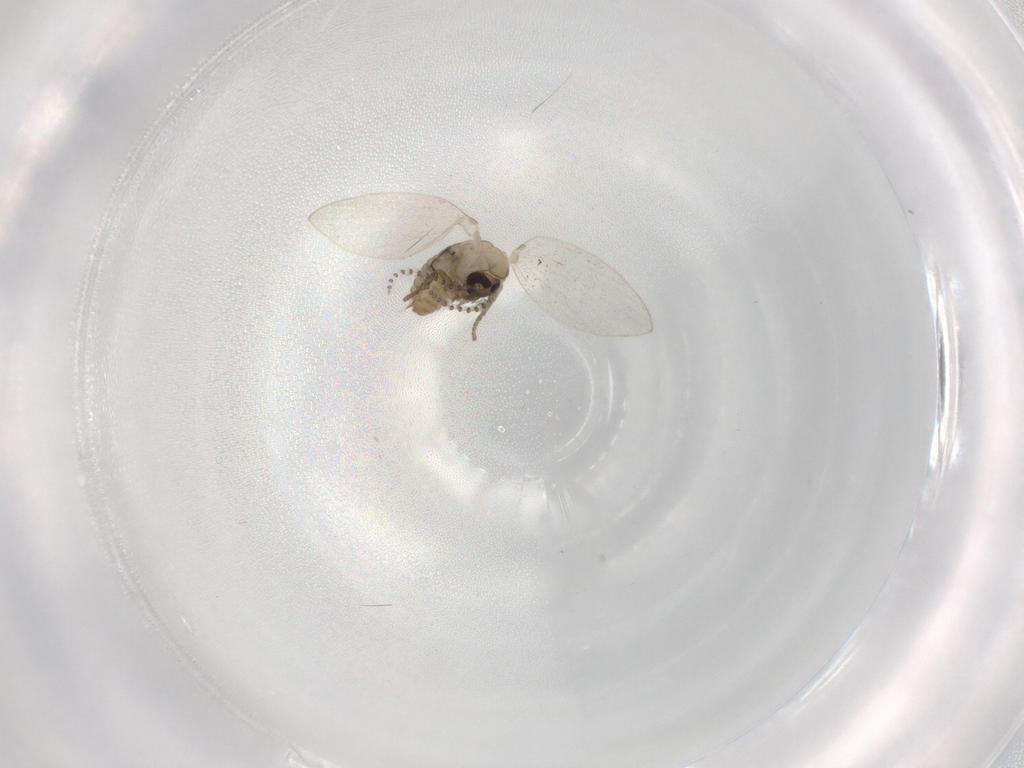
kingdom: Animalia
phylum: Arthropoda
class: Insecta
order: Diptera
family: Psychodidae
